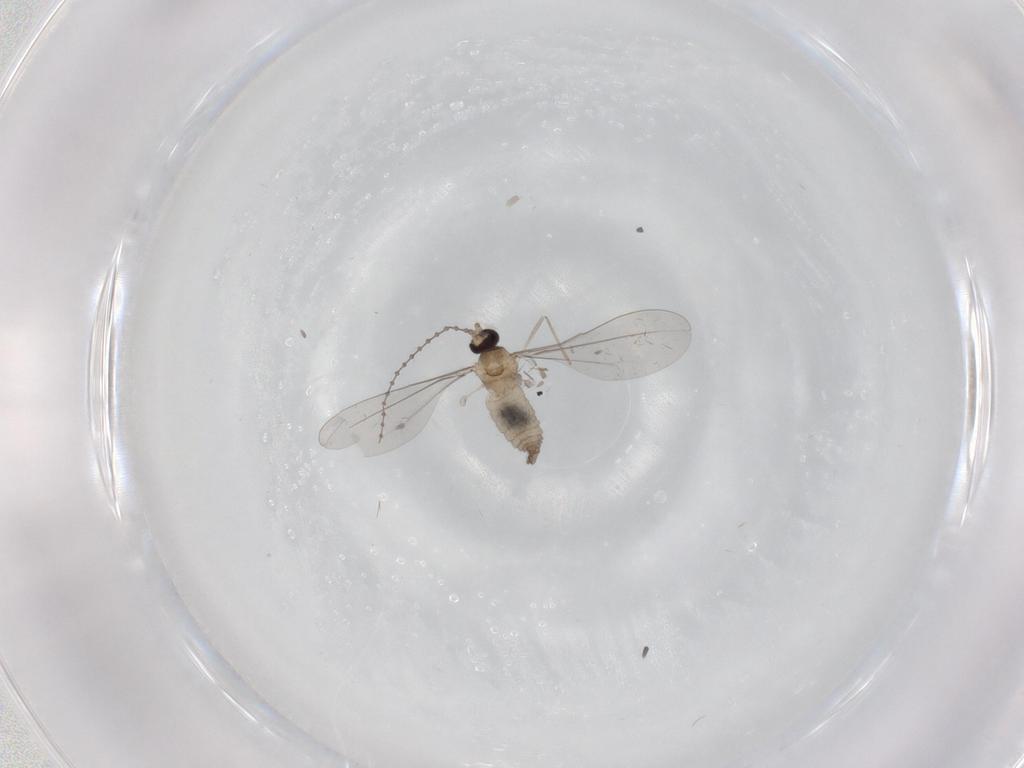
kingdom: Animalia
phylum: Arthropoda
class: Insecta
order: Diptera
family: Cecidomyiidae
